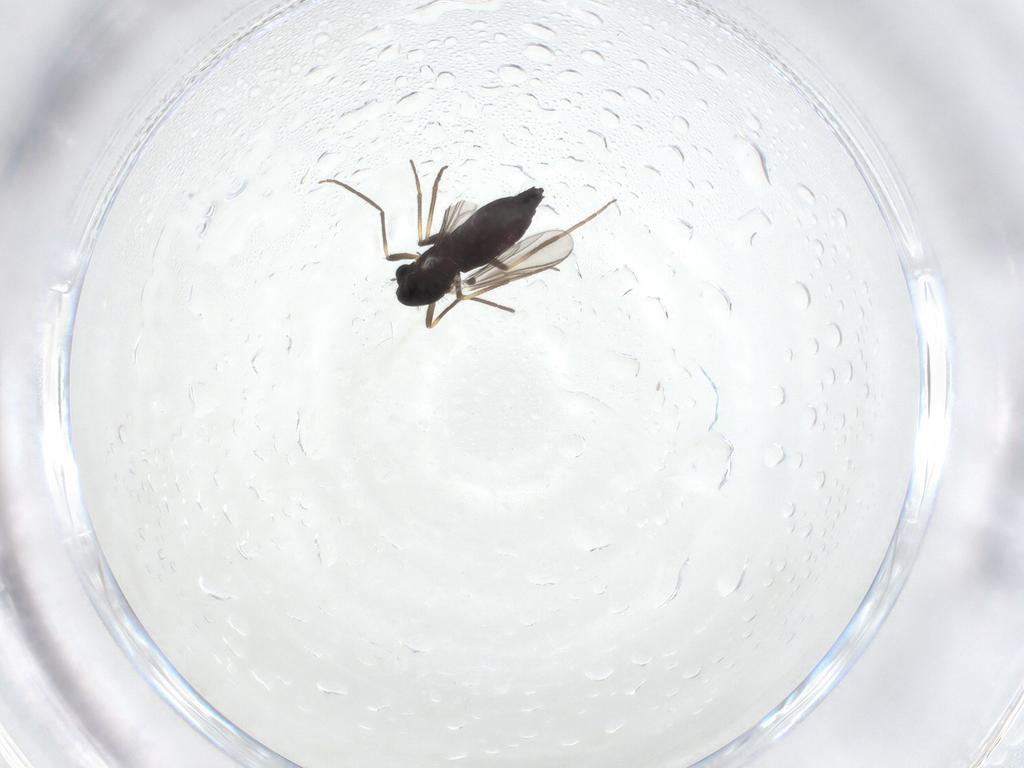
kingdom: Animalia
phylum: Arthropoda
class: Insecta
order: Diptera
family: Chironomidae
